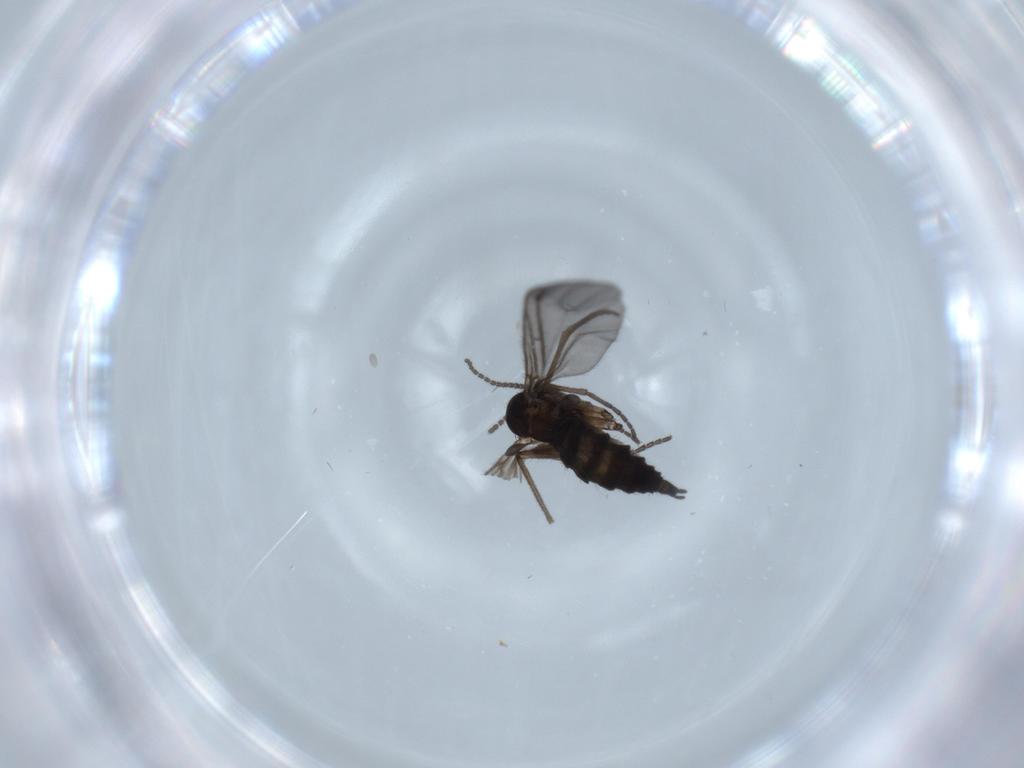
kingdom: Animalia
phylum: Arthropoda
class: Insecta
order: Diptera
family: Sciaridae
